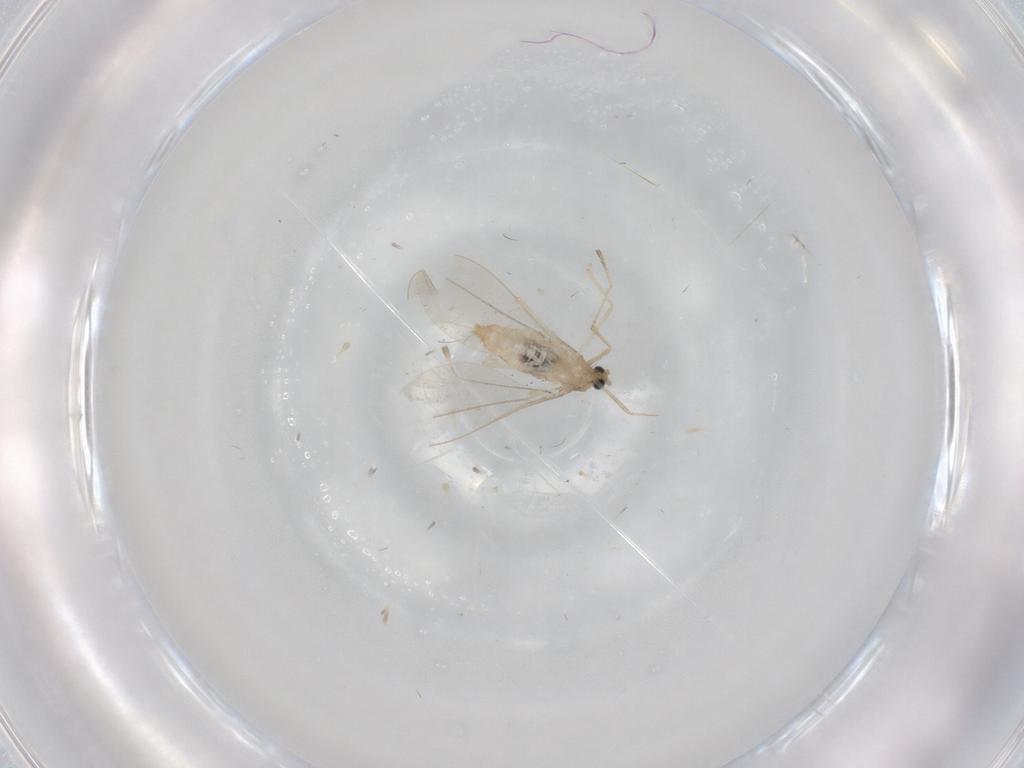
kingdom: Animalia
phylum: Arthropoda
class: Insecta
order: Diptera
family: Cecidomyiidae
